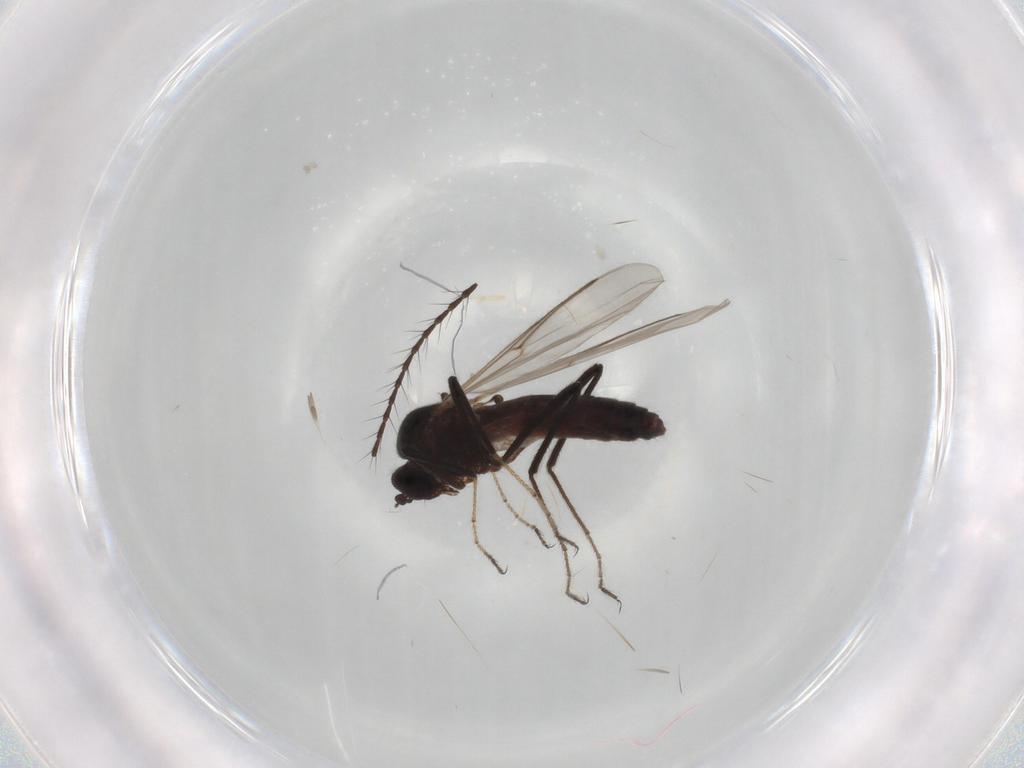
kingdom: Animalia
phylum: Arthropoda
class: Insecta
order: Diptera
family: Ceratopogonidae
